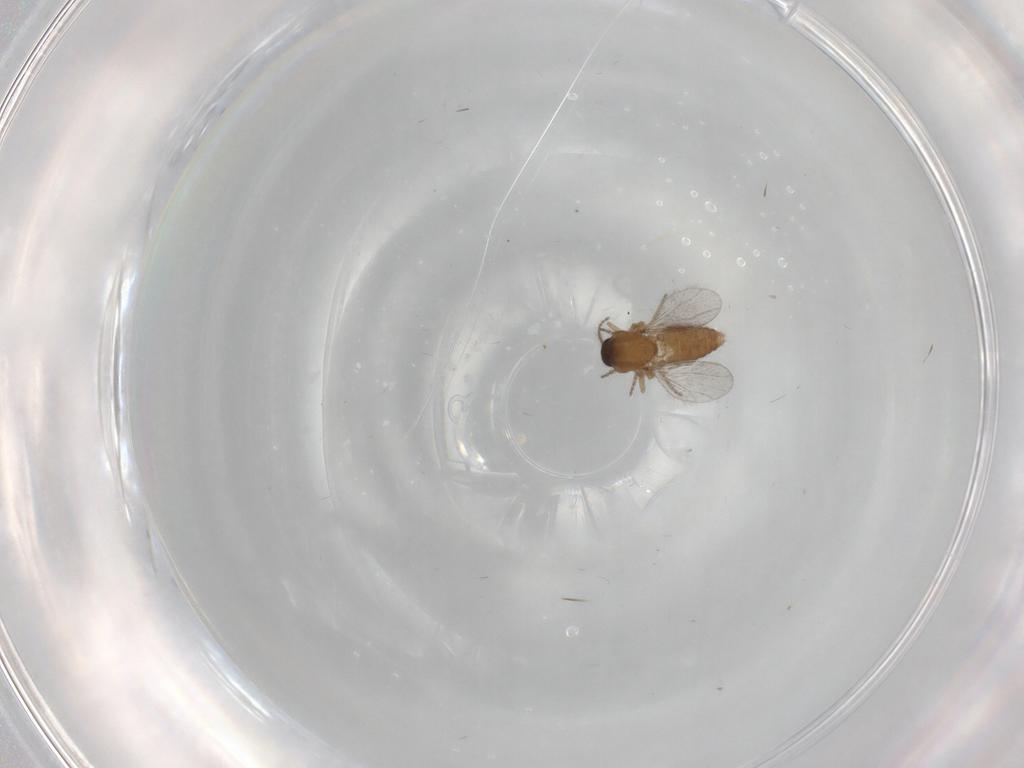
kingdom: Animalia
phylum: Arthropoda
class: Insecta
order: Diptera
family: Ceratopogonidae
